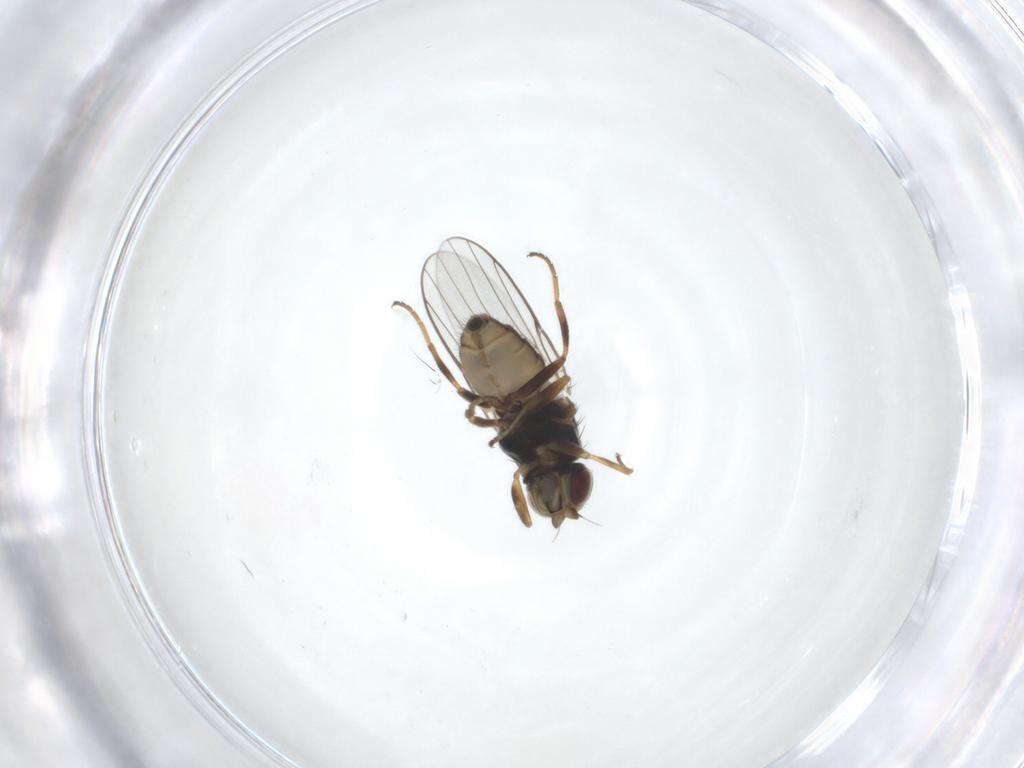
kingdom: Animalia
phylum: Arthropoda
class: Insecta
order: Diptera
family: Chloropidae
